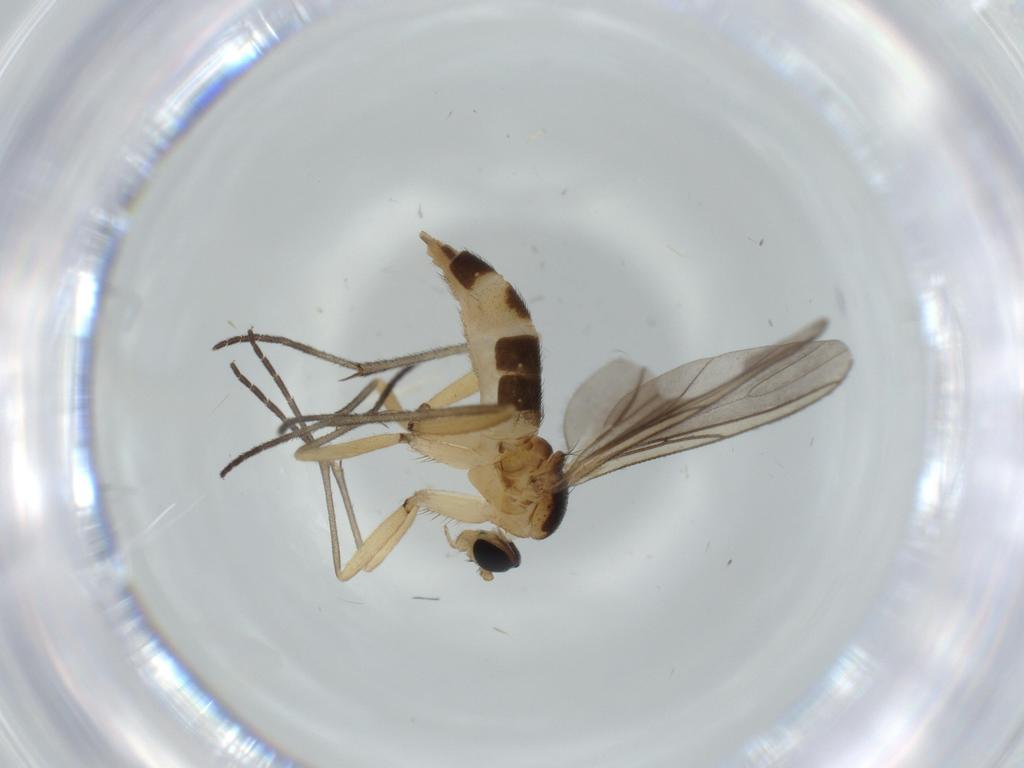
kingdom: Animalia
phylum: Arthropoda
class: Insecta
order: Diptera
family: Sciaridae
